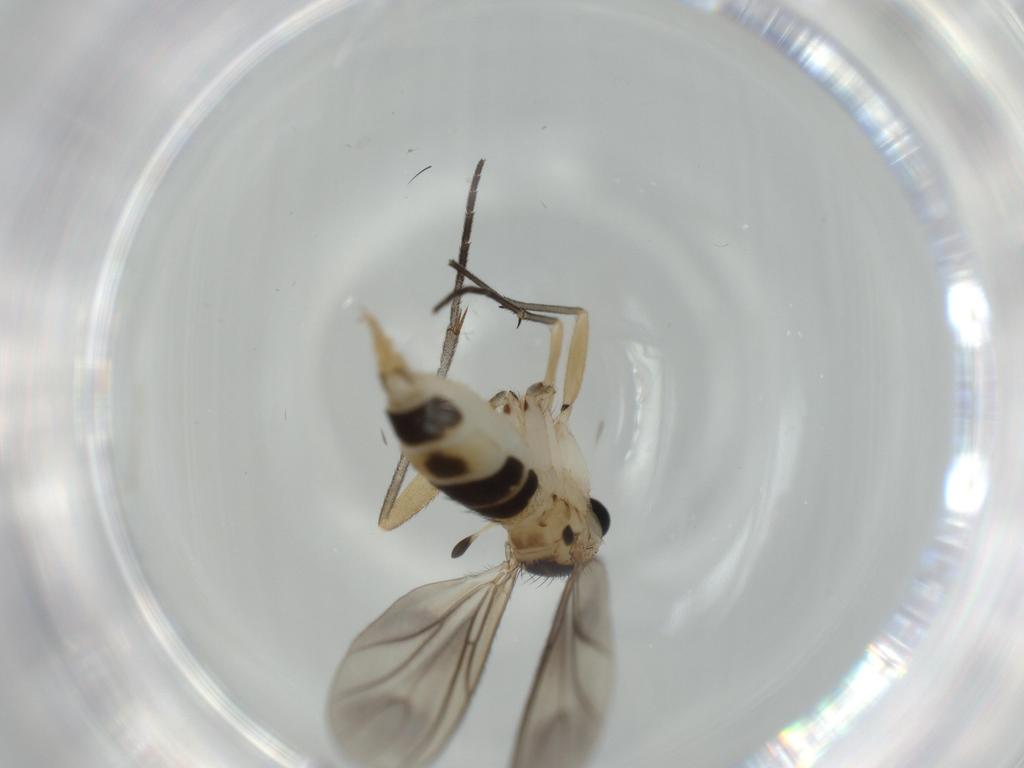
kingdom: Animalia
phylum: Arthropoda
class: Insecta
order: Diptera
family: Sciaridae
